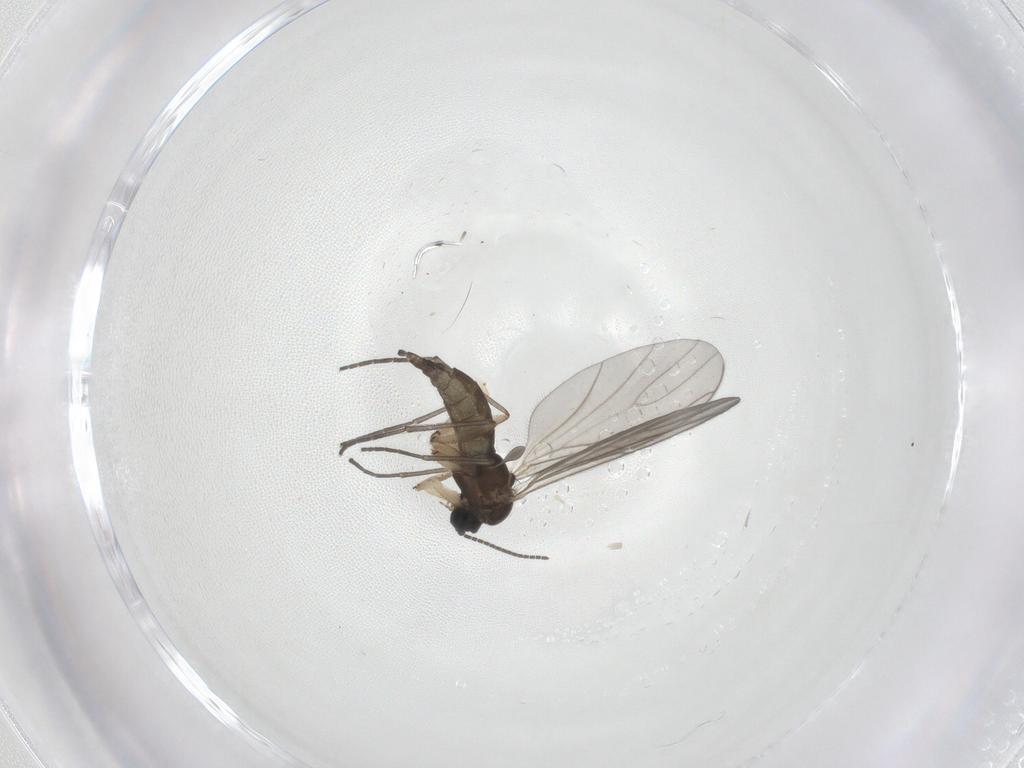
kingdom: Animalia
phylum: Arthropoda
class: Insecta
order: Diptera
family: Sciaridae
